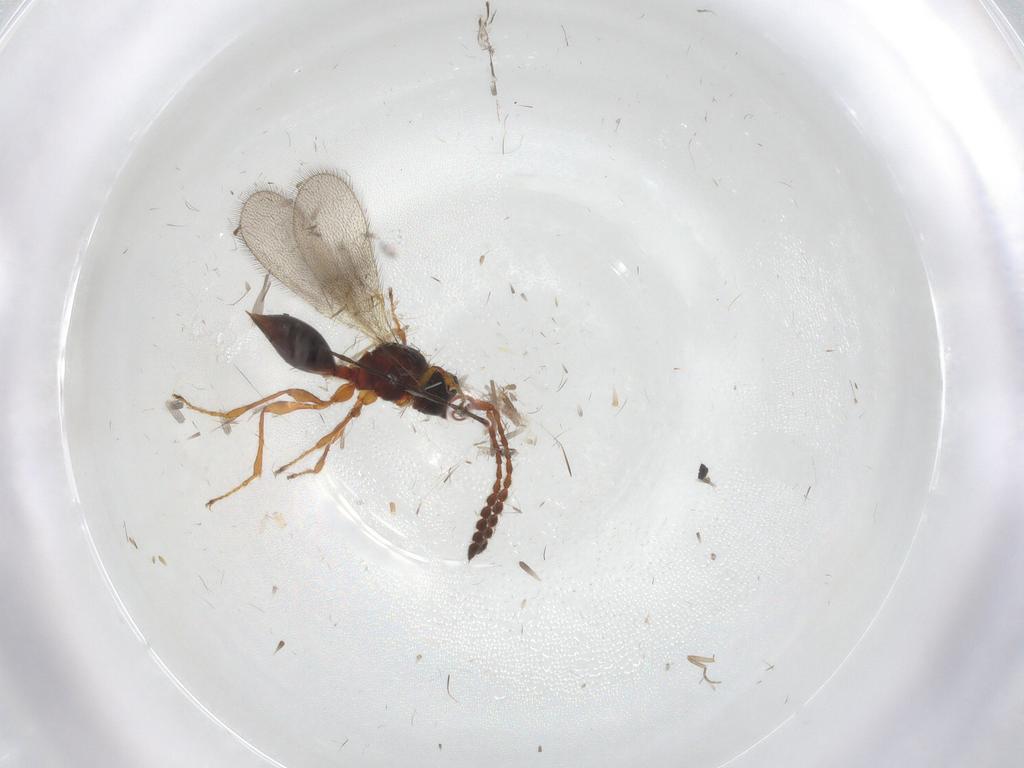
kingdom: Animalia
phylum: Arthropoda
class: Insecta
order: Hymenoptera
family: Diapriidae
